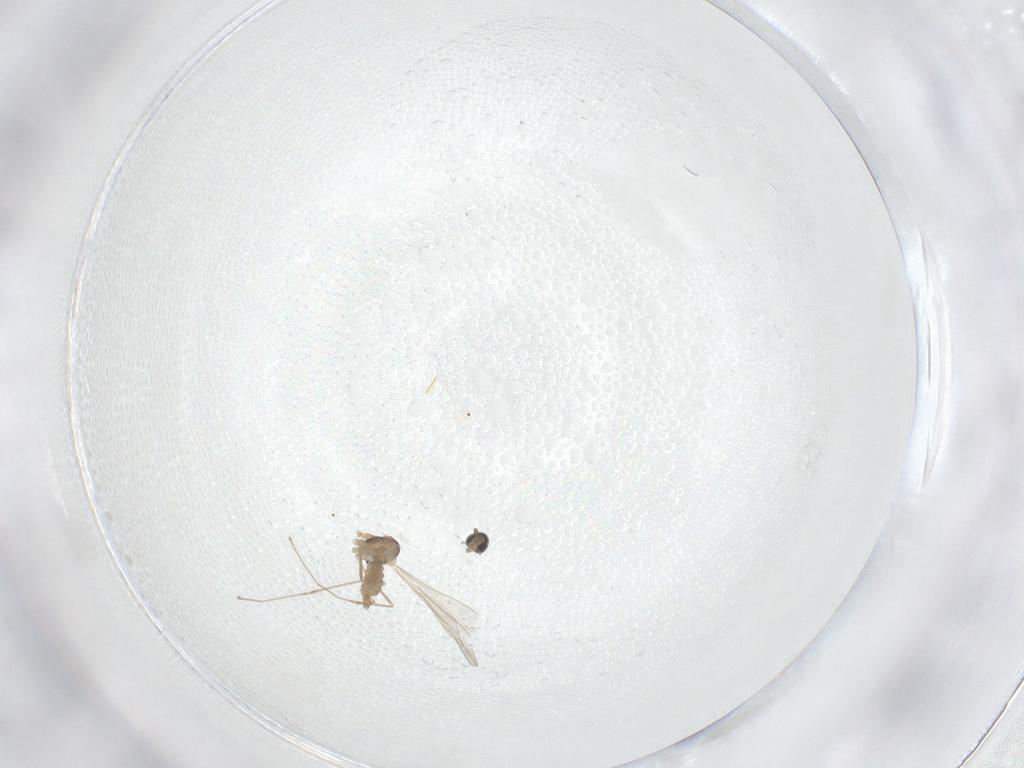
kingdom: Animalia
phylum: Arthropoda
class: Insecta
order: Diptera
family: Cecidomyiidae
